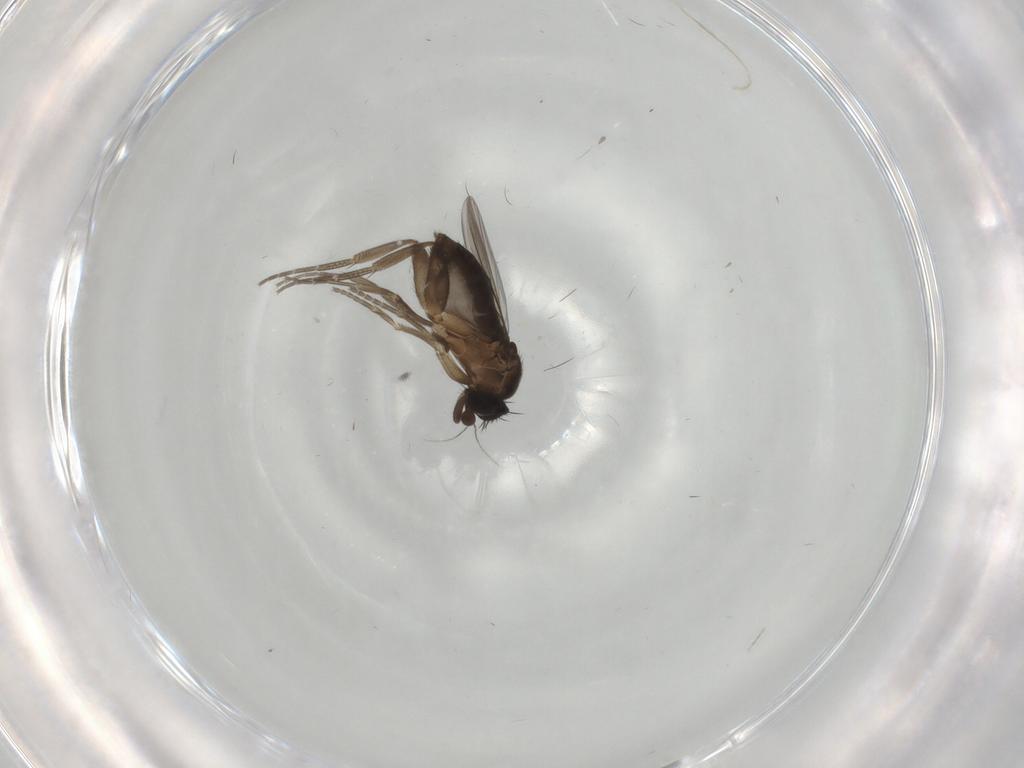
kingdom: Animalia
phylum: Arthropoda
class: Insecta
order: Diptera
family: Phoridae
